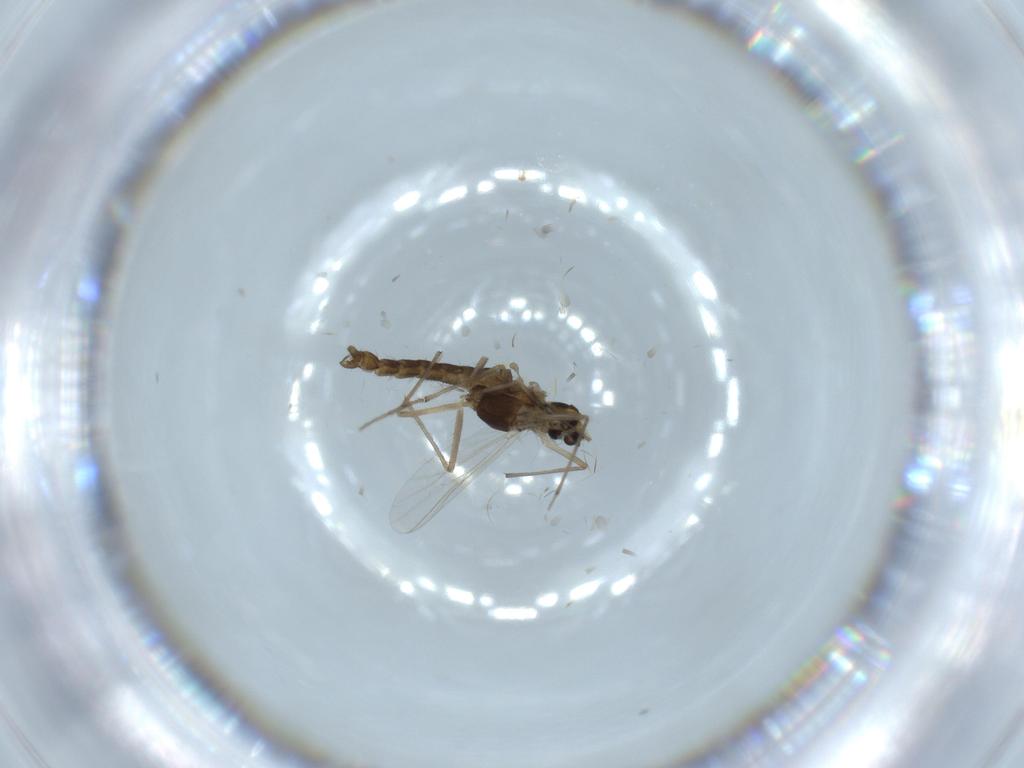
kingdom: Animalia
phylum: Arthropoda
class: Insecta
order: Diptera
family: Chironomidae
